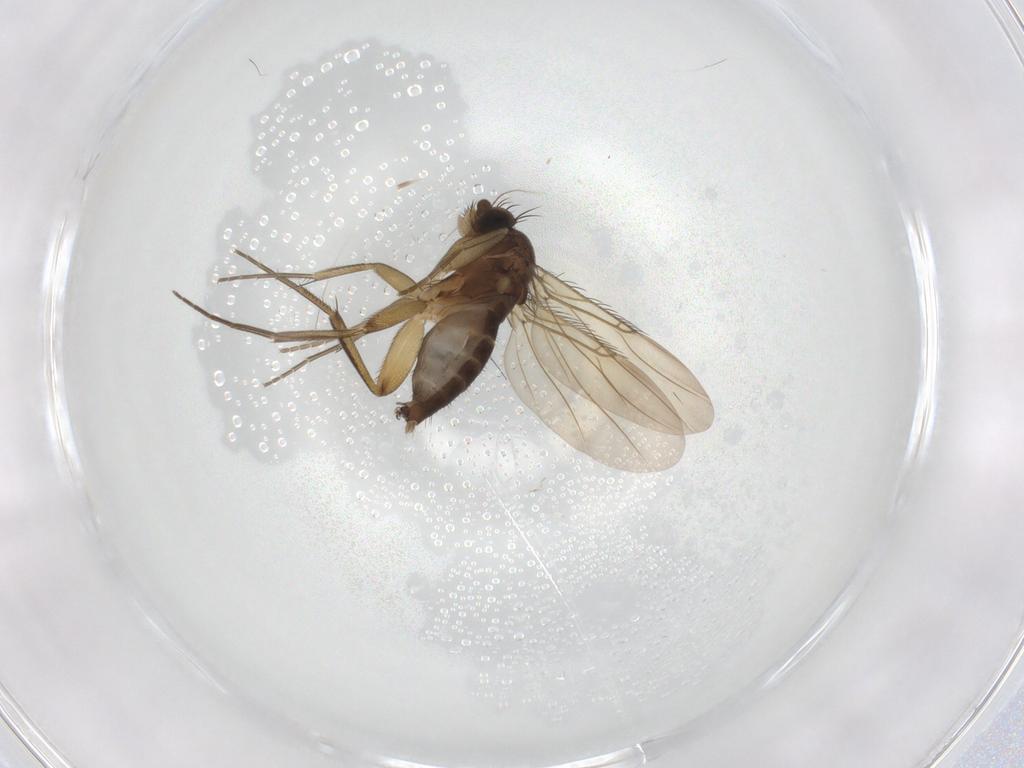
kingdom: Animalia
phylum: Arthropoda
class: Insecta
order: Diptera
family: Phoridae
